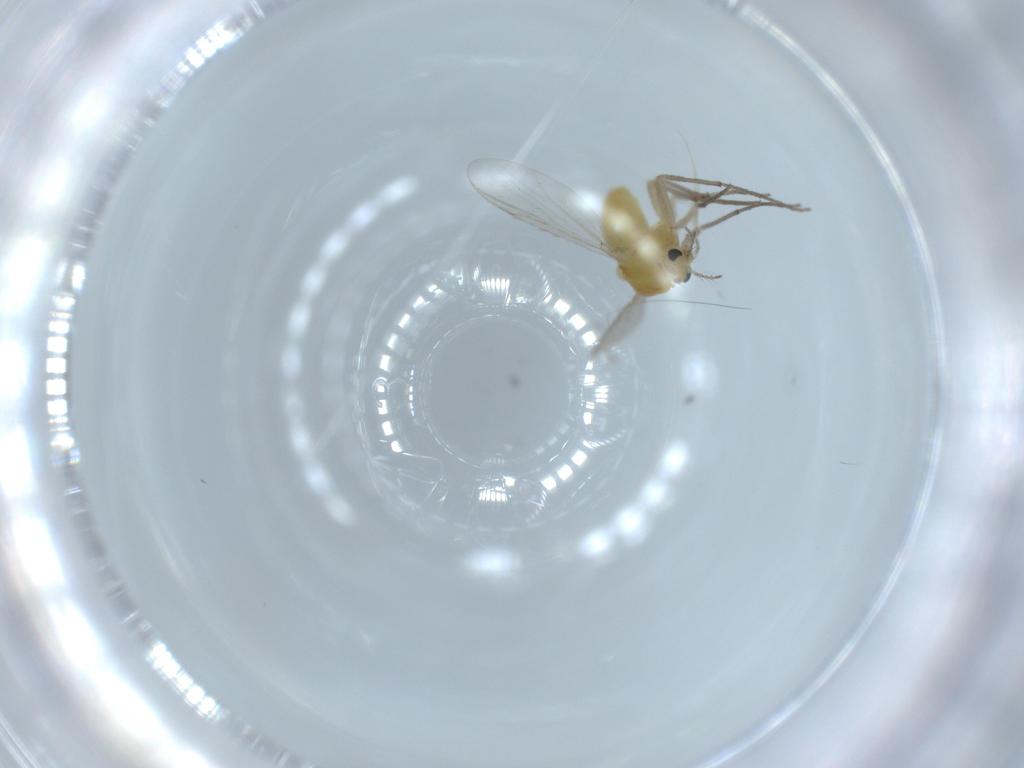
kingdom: Animalia
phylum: Arthropoda
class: Insecta
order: Diptera
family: Chironomidae
